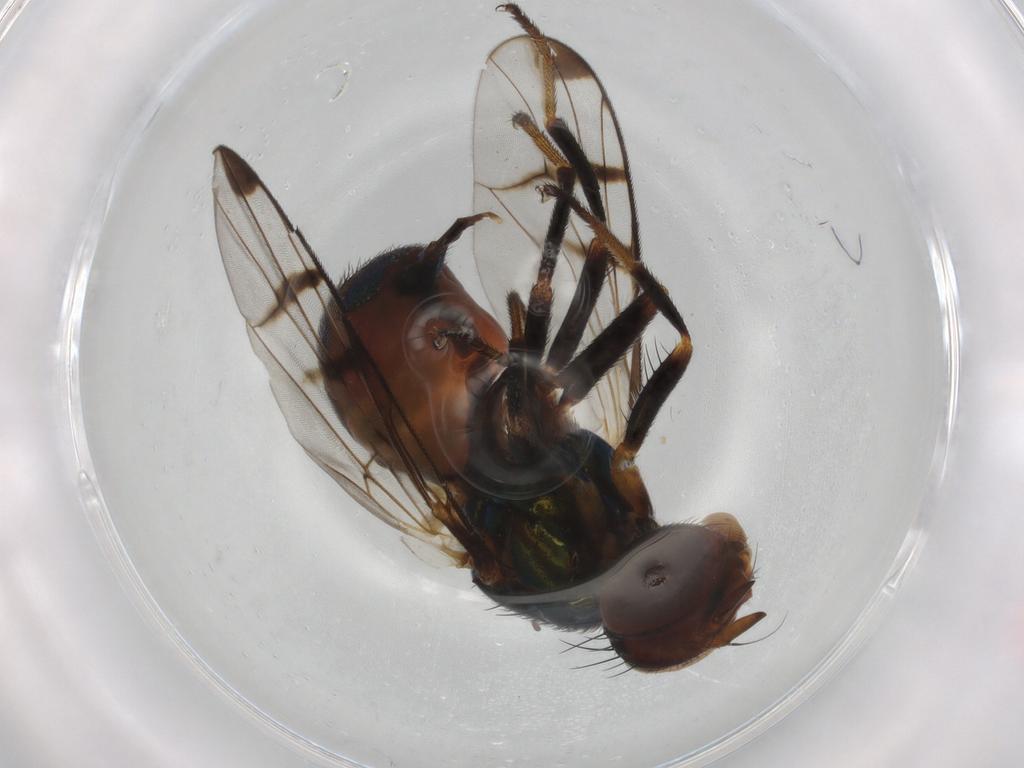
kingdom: Animalia
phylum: Arthropoda
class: Insecta
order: Diptera
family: Platystomatidae
